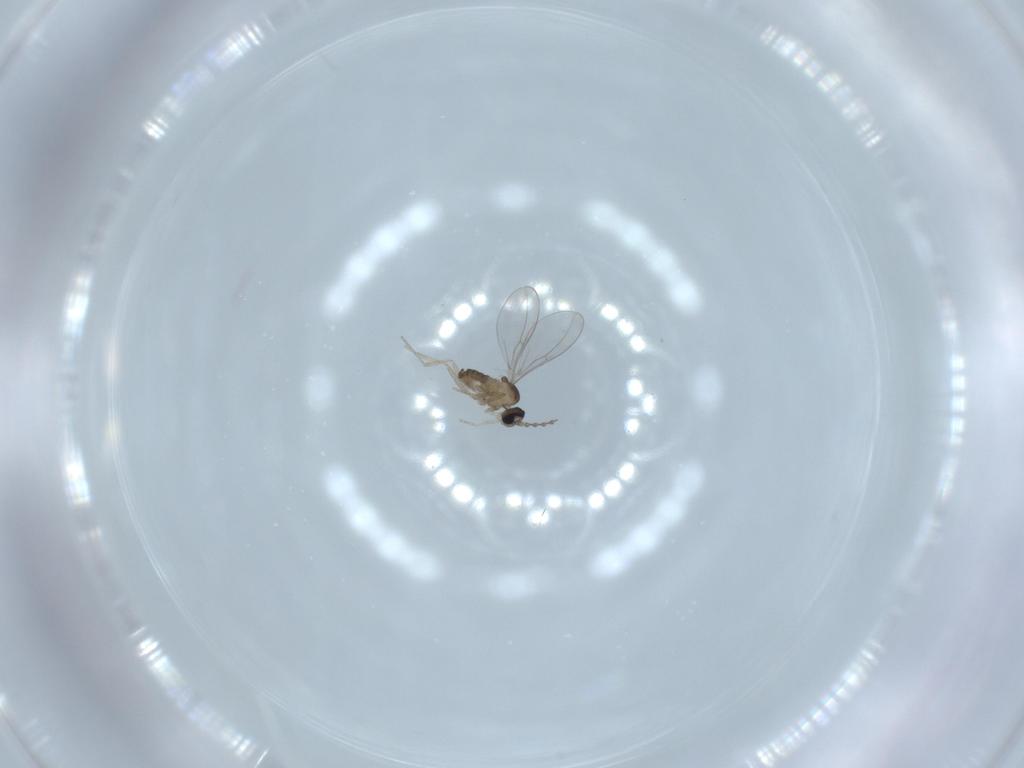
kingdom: Animalia
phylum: Arthropoda
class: Insecta
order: Diptera
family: Cecidomyiidae
